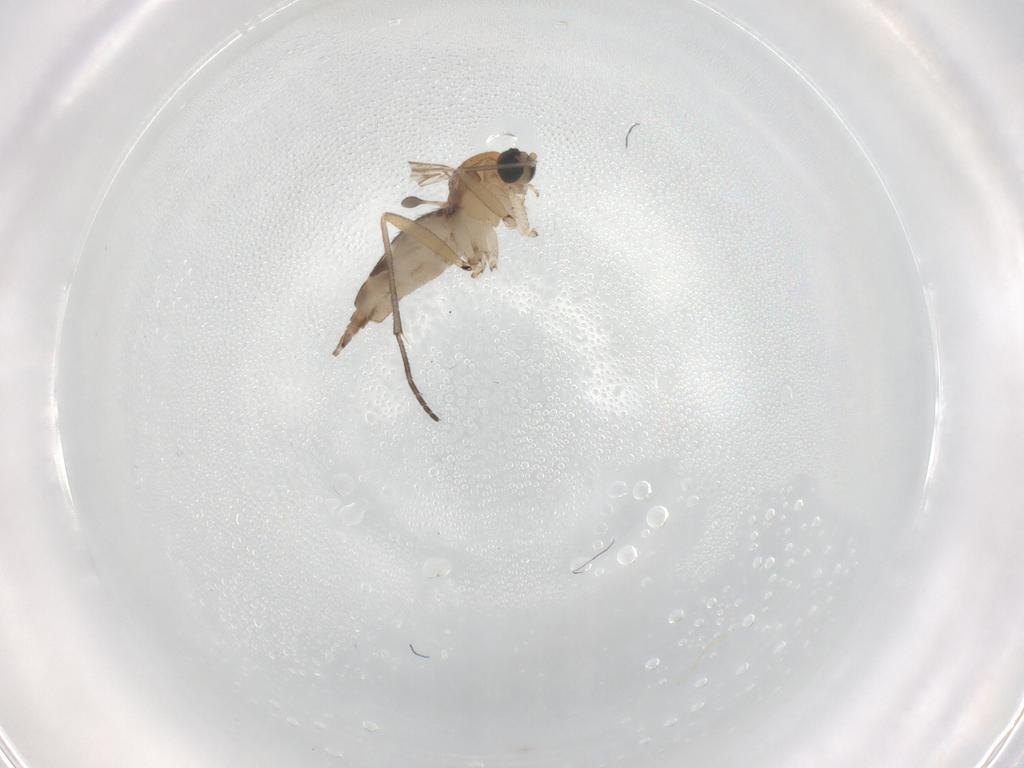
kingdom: Animalia
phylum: Arthropoda
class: Insecta
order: Diptera
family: Sciaridae
